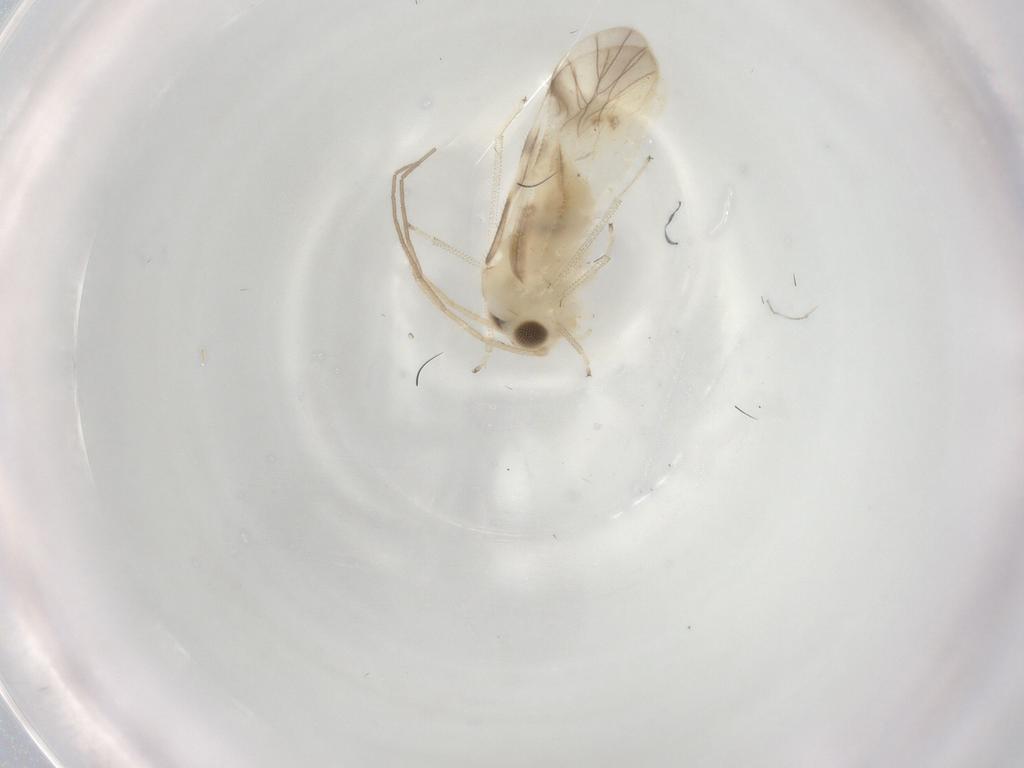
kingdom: Animalia
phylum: Arthropoda
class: Insecta
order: Psocodea
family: Caeciliusidae
